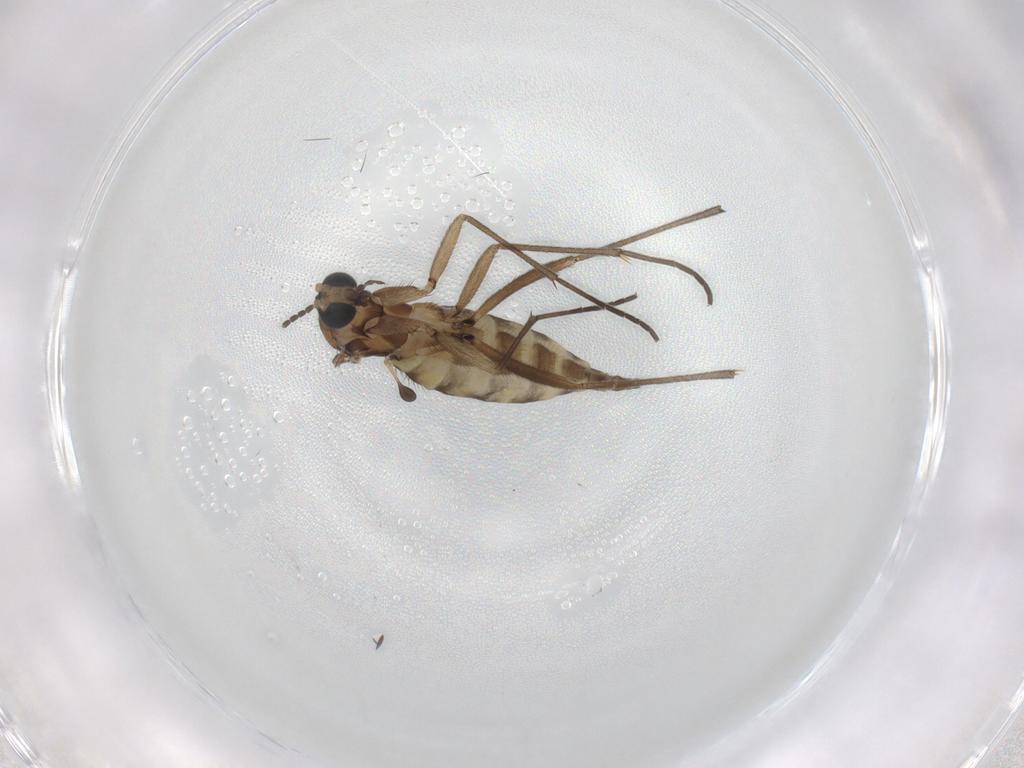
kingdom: Animalia
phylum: Arthropoda
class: Insecta
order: Diptera
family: Sciaridae
